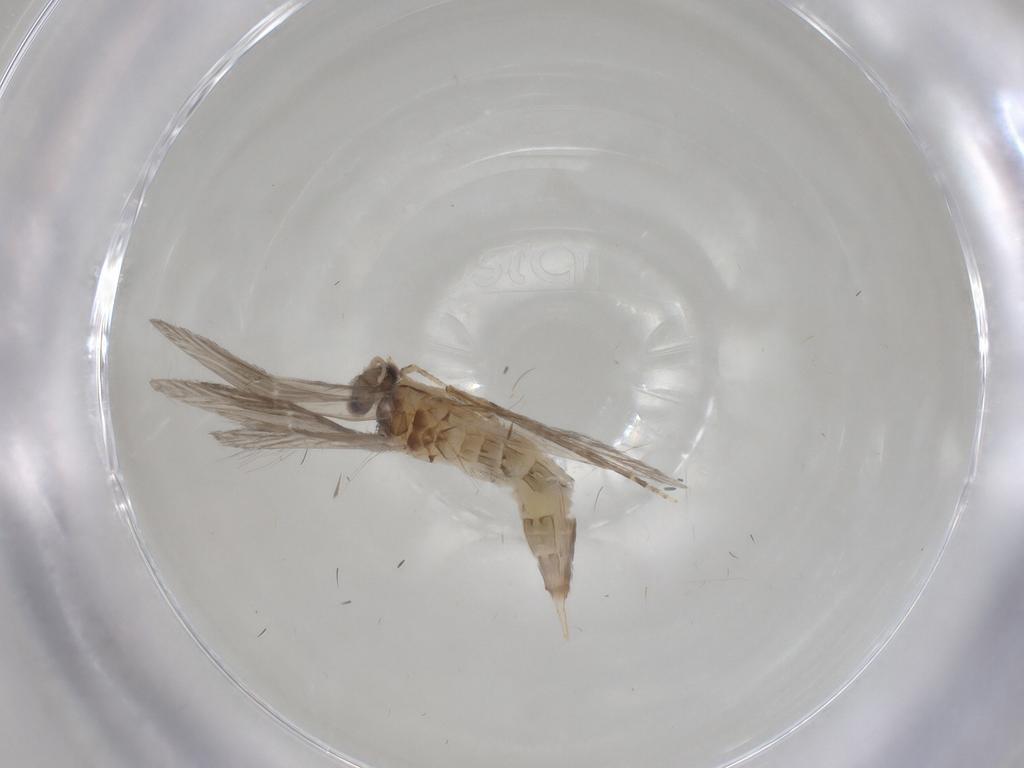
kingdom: Animalia
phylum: Arthropoda
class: Insecta
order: Trichoptera
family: Hydroptilidae
